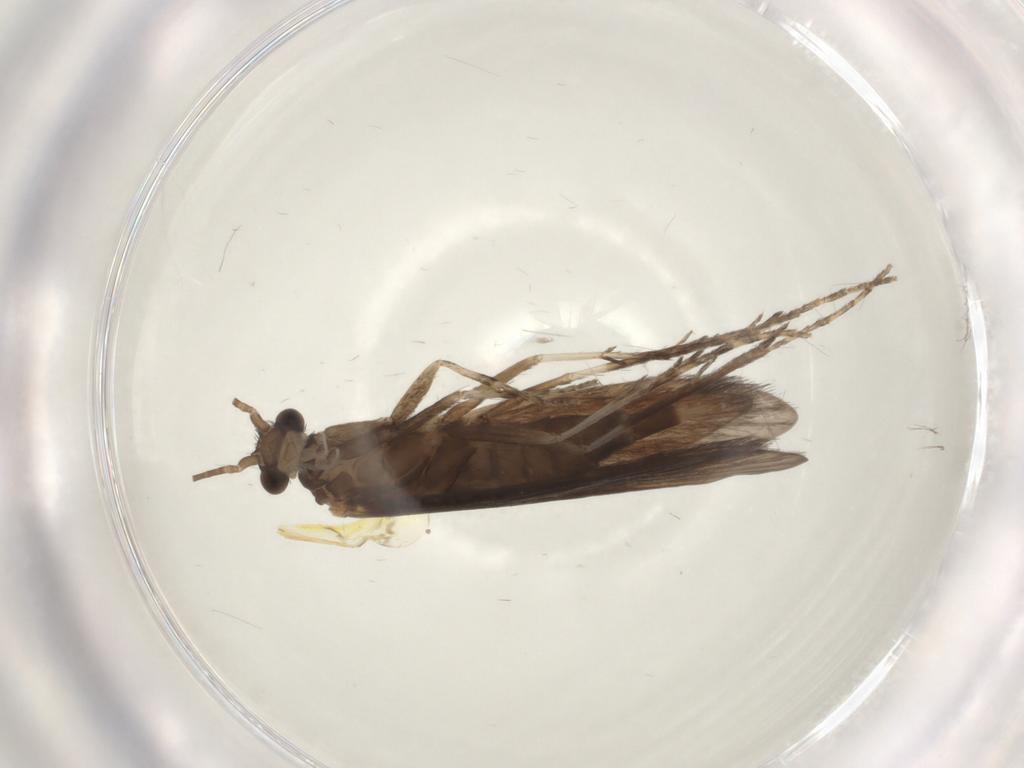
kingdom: Animalia
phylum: Arthropoda
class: Insecta
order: Trichoptera
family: Xiphocentronidae
